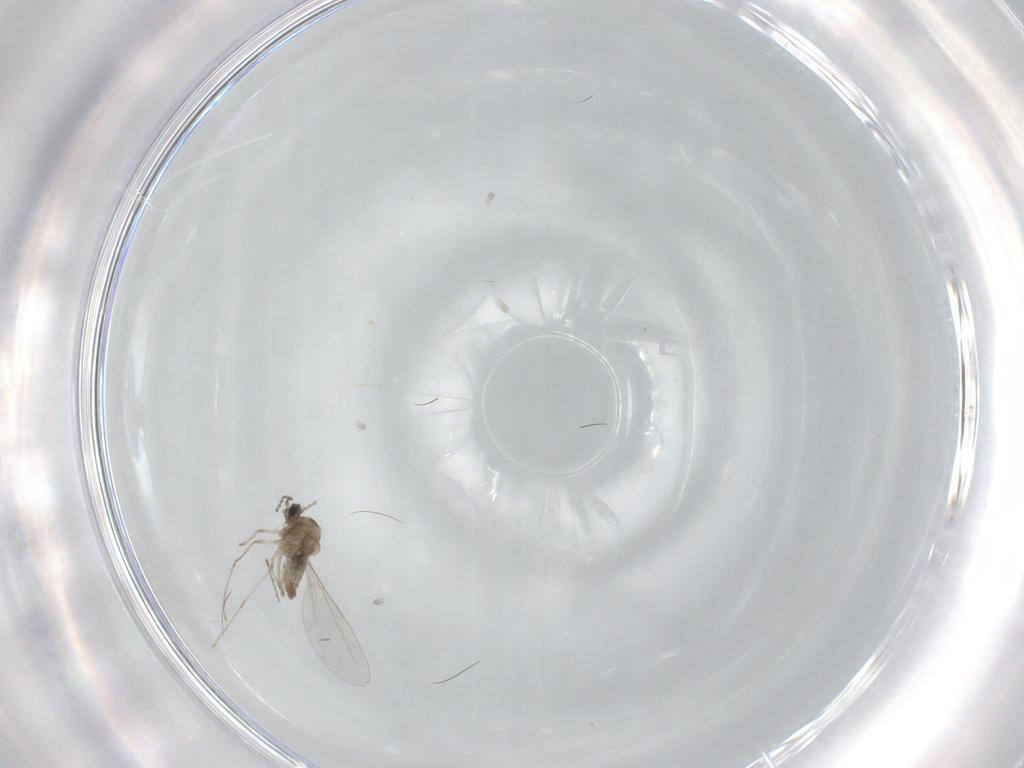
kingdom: Animalia
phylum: Arthropoda
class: Insecta
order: Diptera
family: Cecidomyiidae
